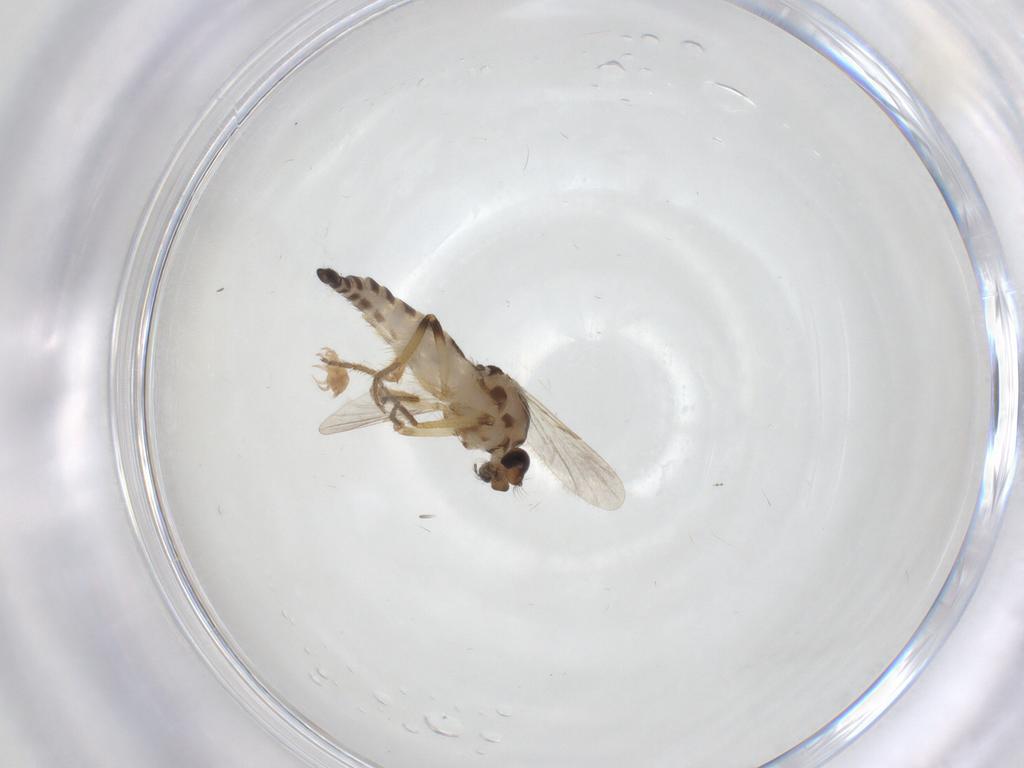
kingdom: Animalia
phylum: Arthropoda
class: Insecta
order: Diptera
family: Ceratopogonidae
